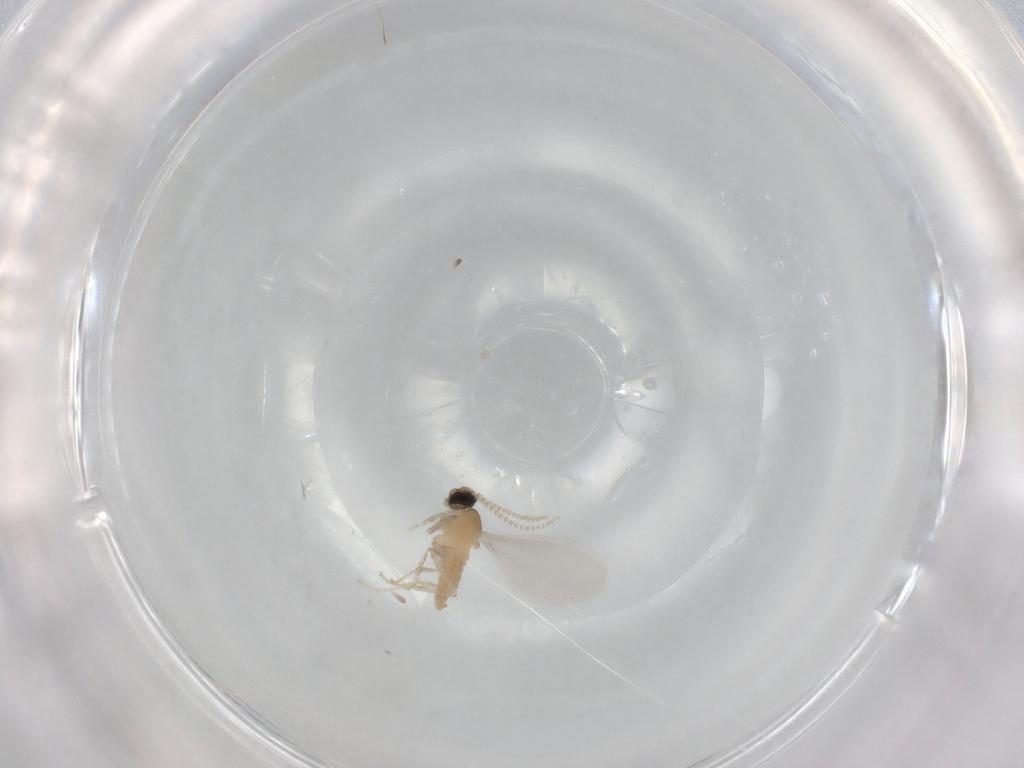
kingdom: Animalia
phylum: Arthropoda
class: Insecta
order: Diptera
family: Cecidomyiidae
